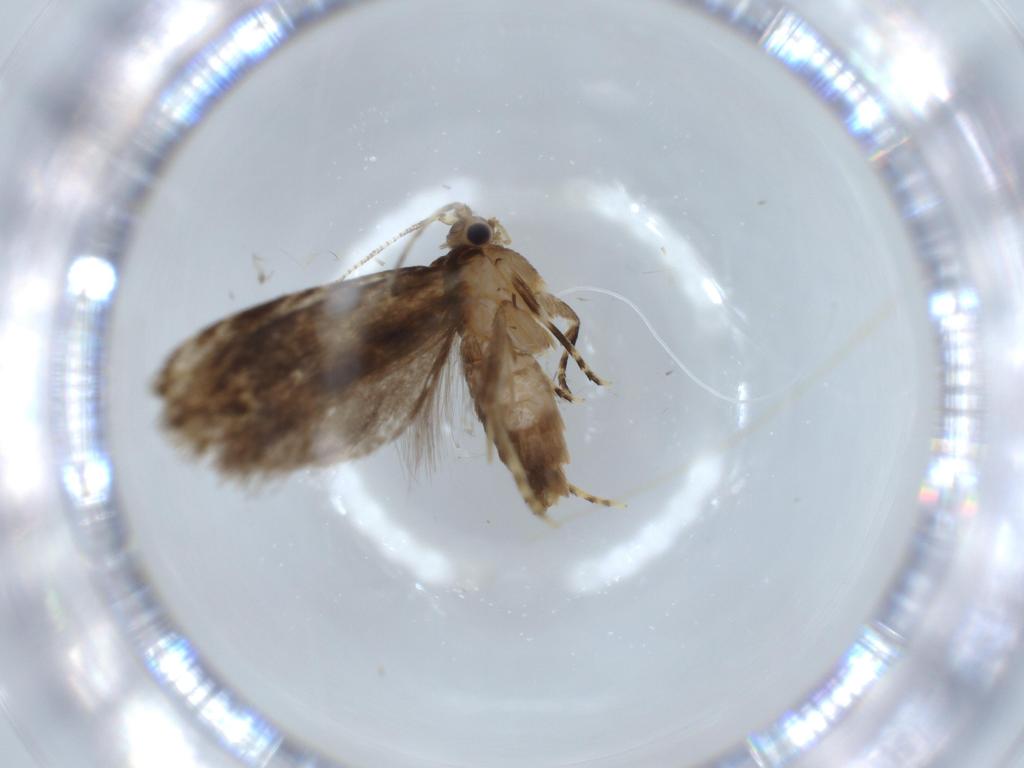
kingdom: Animalia
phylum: Arthropoda
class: Insecta
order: Lepidoptera
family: Tineidae
